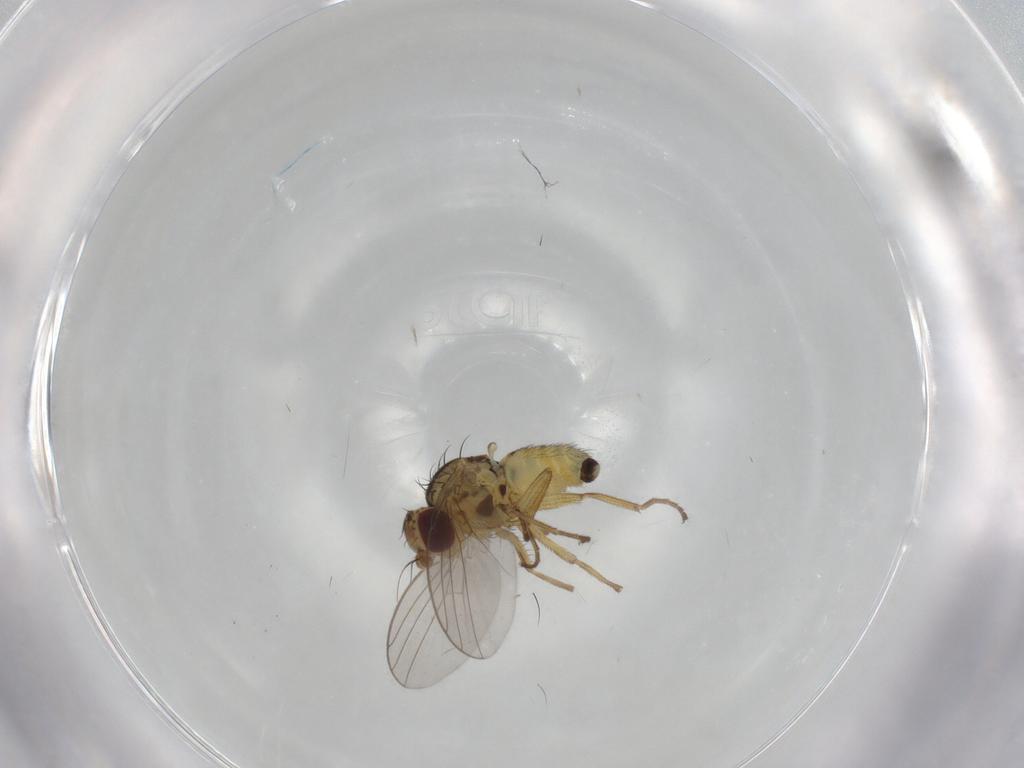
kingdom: Animalia
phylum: Arthropoda
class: Insecta
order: Diptera
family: Agromyzidae
